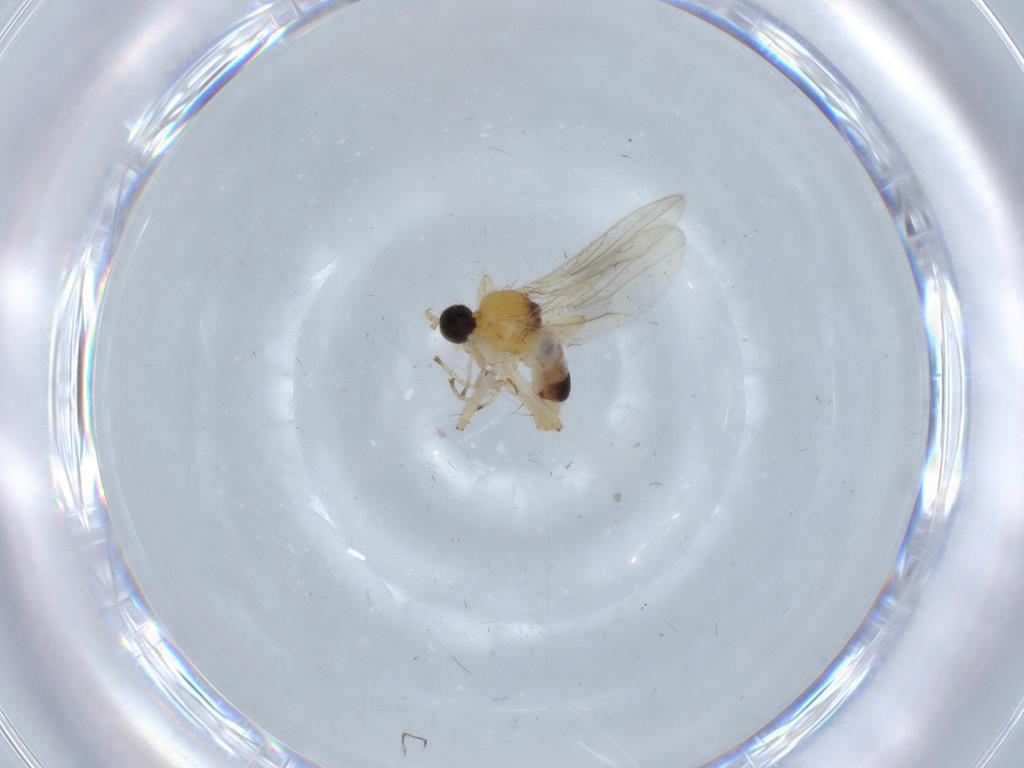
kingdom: Animalia
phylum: Arthropoda
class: Insecta
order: Diptera
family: Hybotidae
